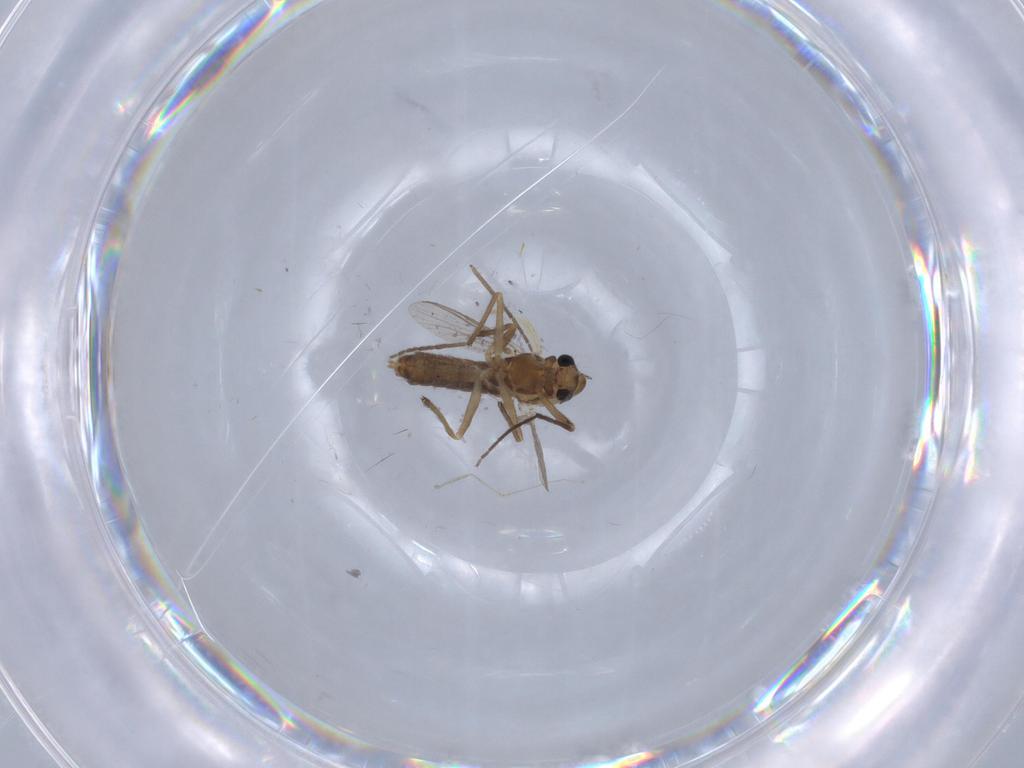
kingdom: Animalia
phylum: Arthropoda
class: Insecta
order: Diptera
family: Chironomidae
